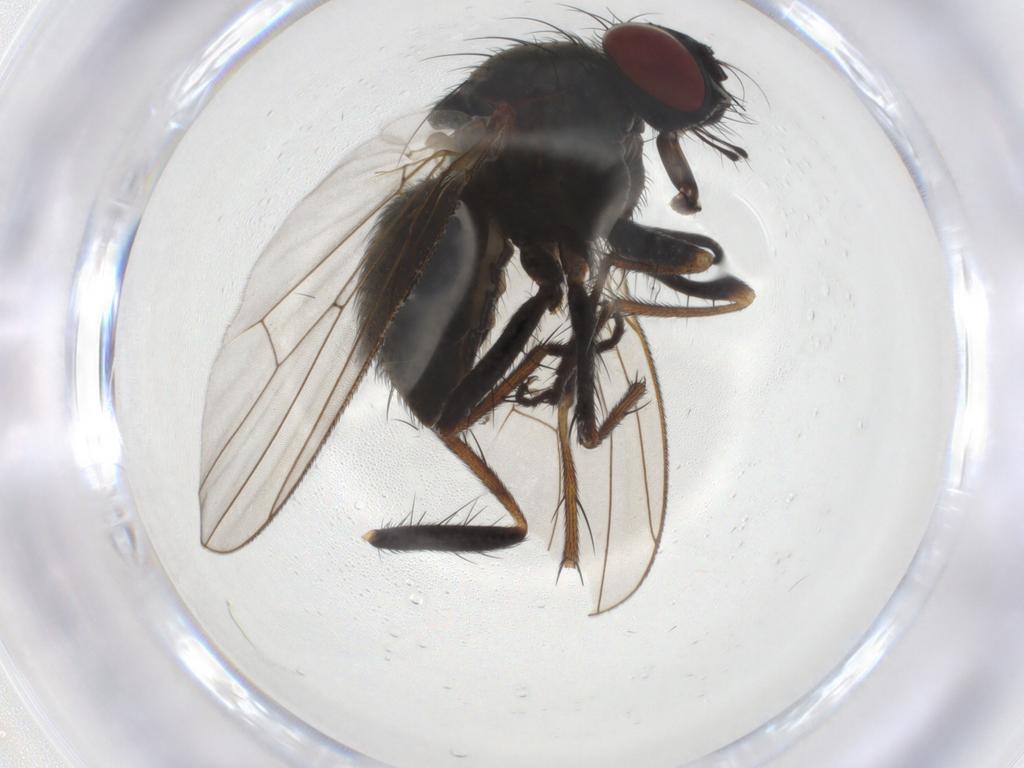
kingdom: Animalia
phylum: Arthropoda
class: Insecta
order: Diptera
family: Muscidae
